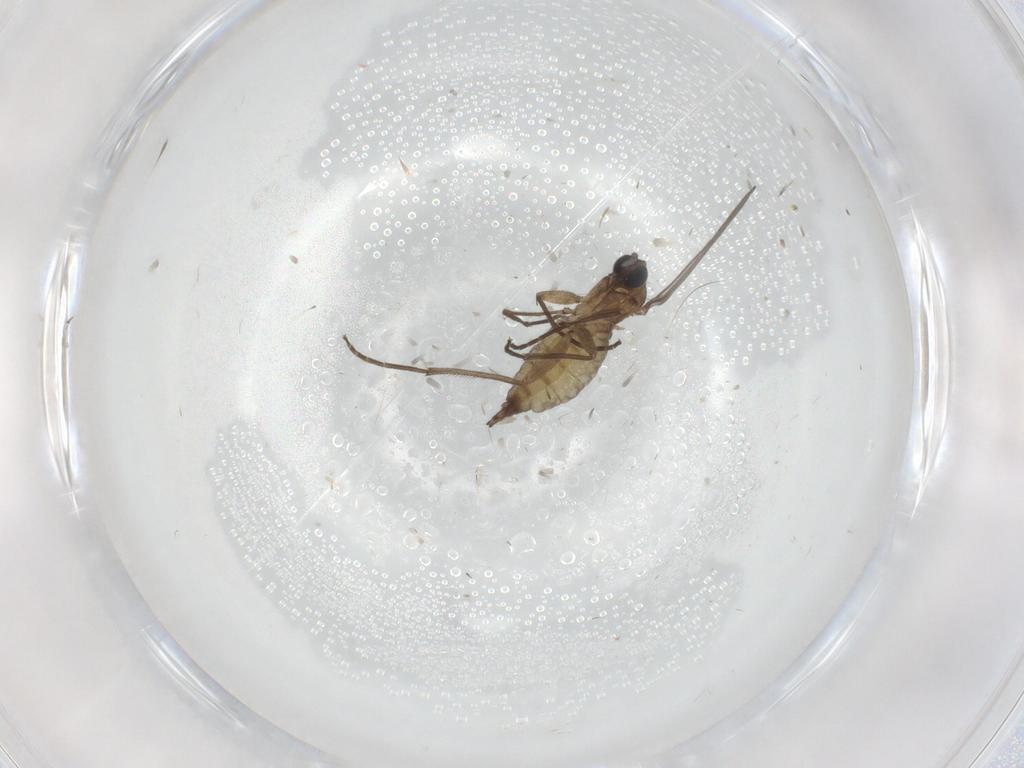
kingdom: Animalia
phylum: Arthropoda
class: Insecta
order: Diptera
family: Sciaridae
